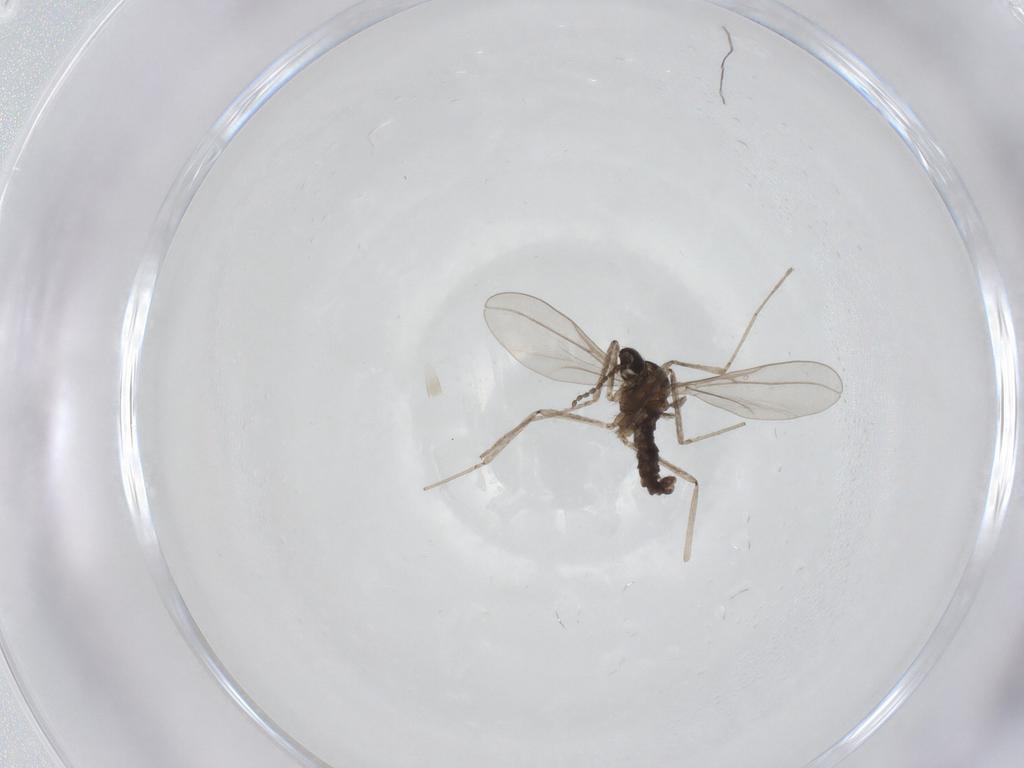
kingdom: Animalia
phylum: Arthropoda
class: Insecta
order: Diptera
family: Cecidomyiidae
